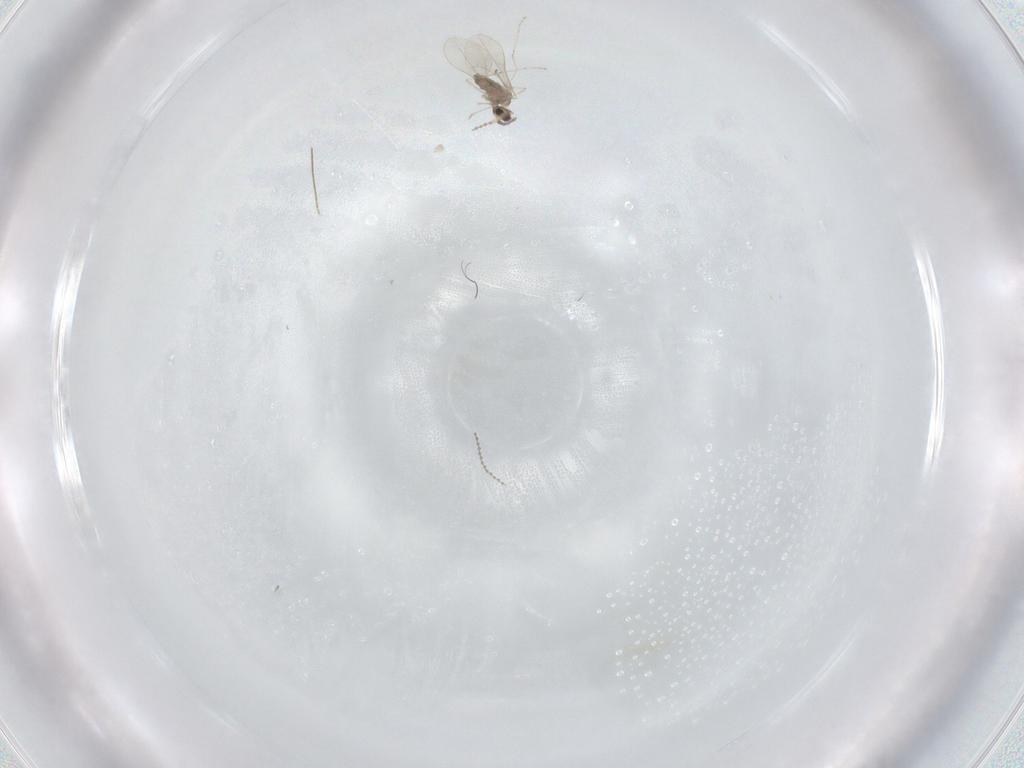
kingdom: Animalia
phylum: Arthropoda
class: Insecta
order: Diptera
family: Cecidomyiidae
